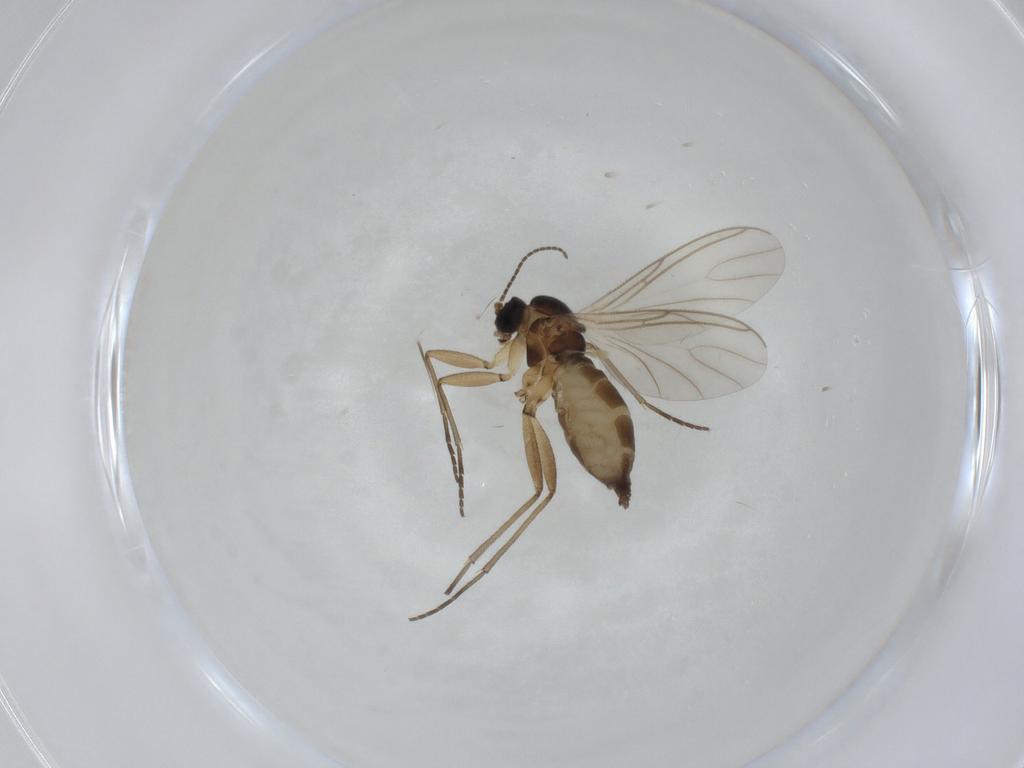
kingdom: Animalia
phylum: Arthropoda
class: Insecta
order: Diptera
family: Sciaridae
